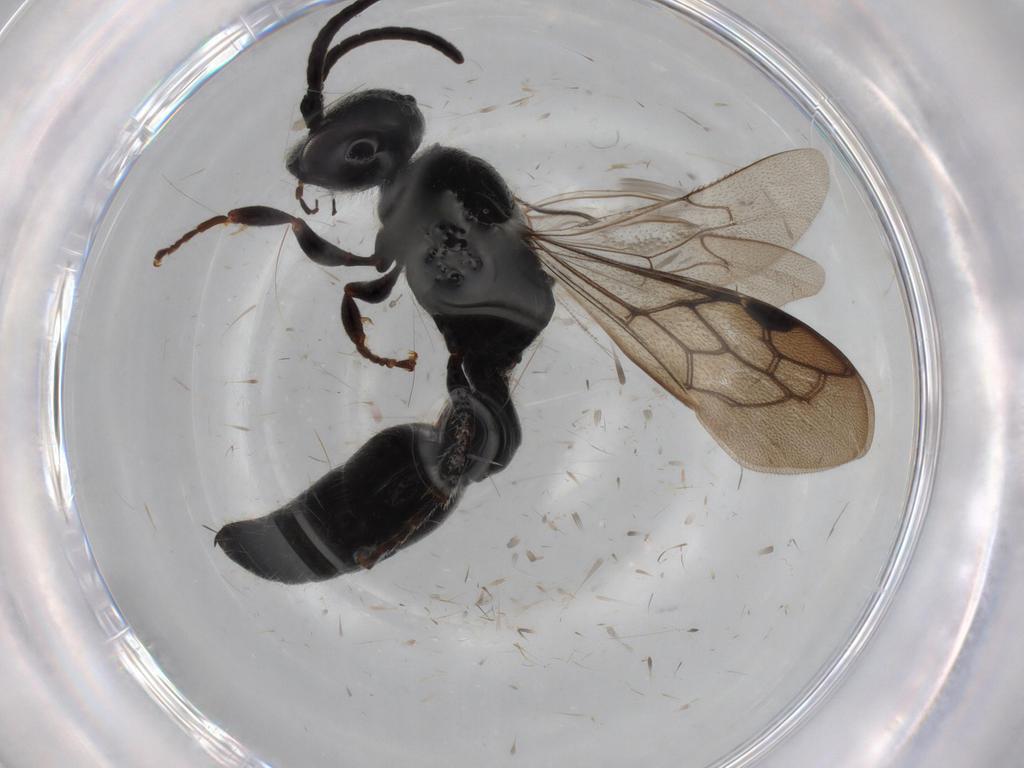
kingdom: Animalia
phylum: Arthropoda
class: Insecta
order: Hymenoptera
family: Tiphiidae
